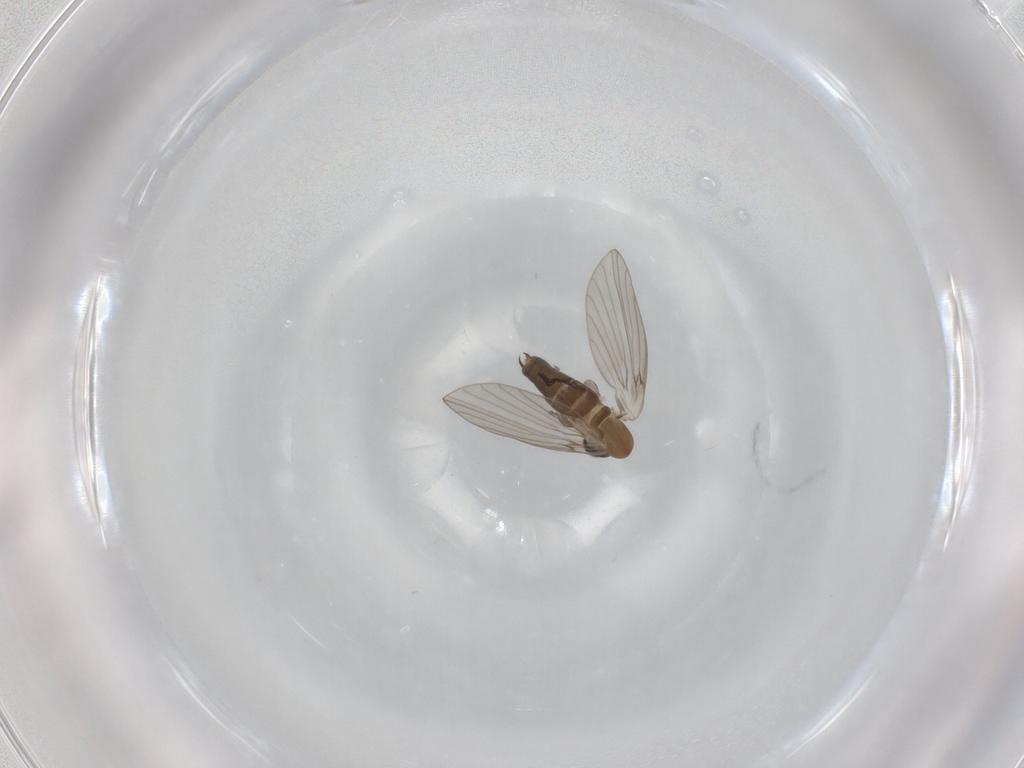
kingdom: Animalia
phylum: Arthropoda
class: Insecta
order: Diptera
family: Psychodidae
